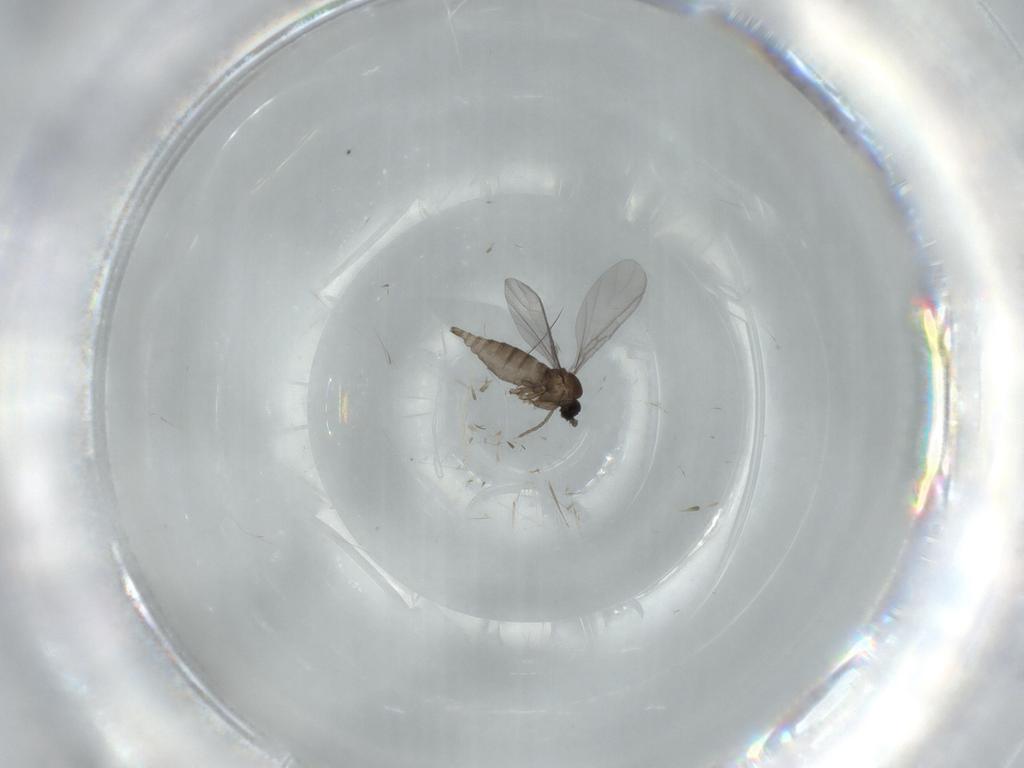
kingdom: Animalia
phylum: Arthropoda
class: Insecta
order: Diptera
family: Sciaridae
